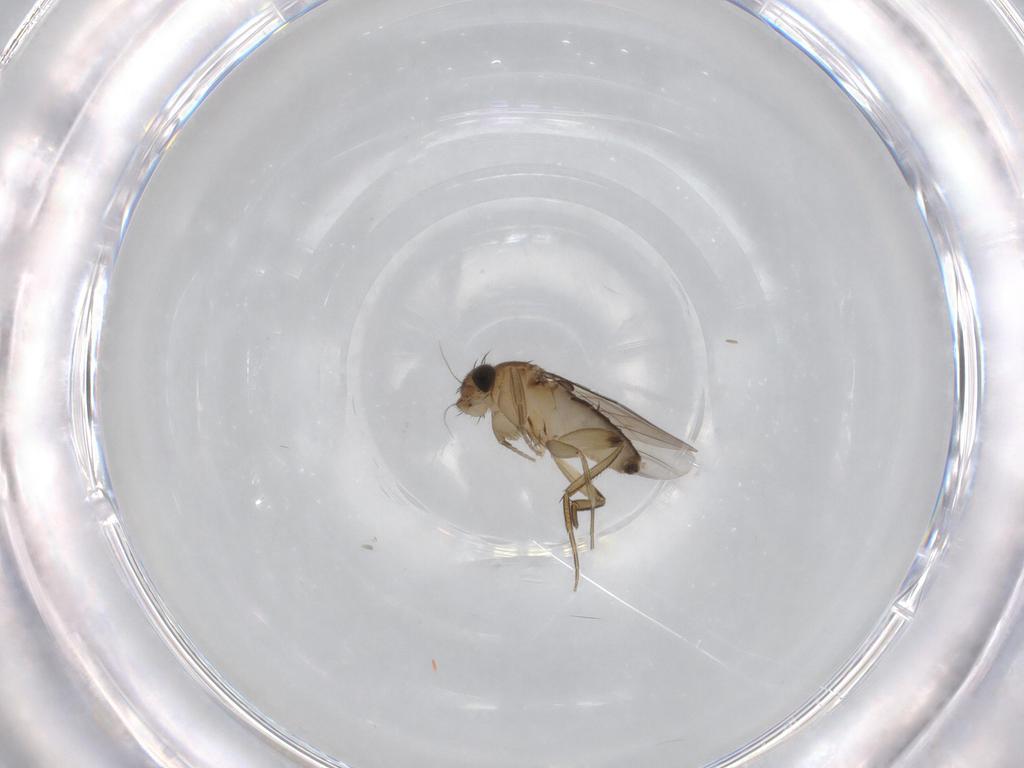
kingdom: Animalia
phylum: Arthropoda
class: Insecta
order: Diptera
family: Phoridae
